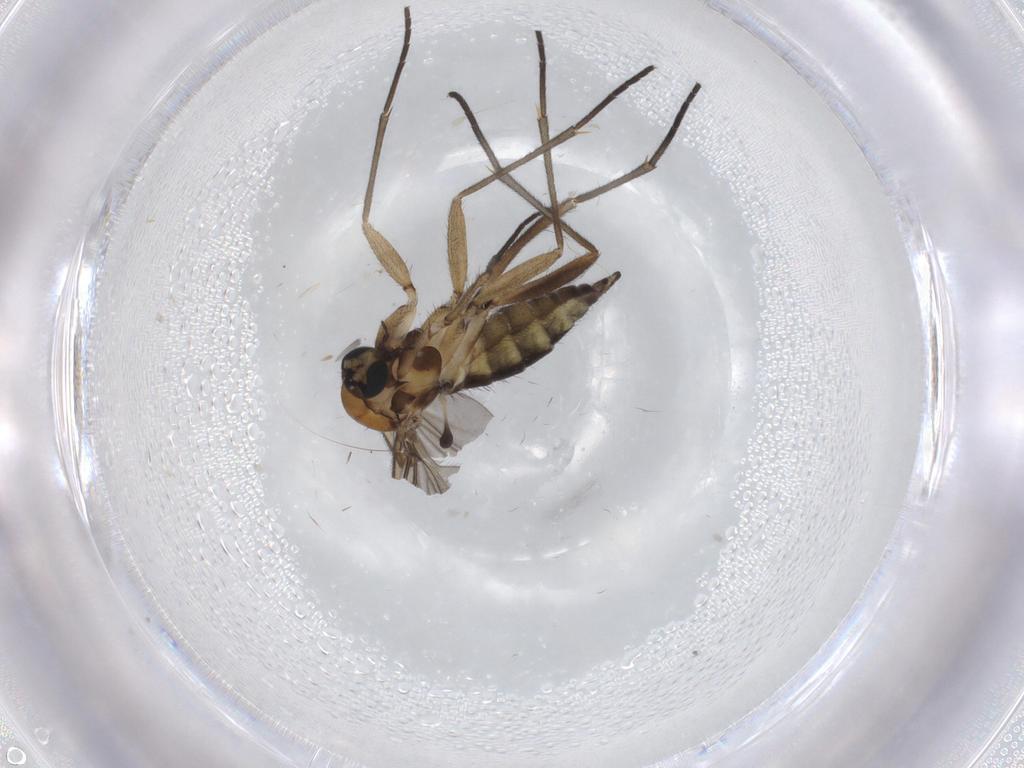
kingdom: Animalia
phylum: Arthropoda
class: Insecta
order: Diptera
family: Sciaridae
